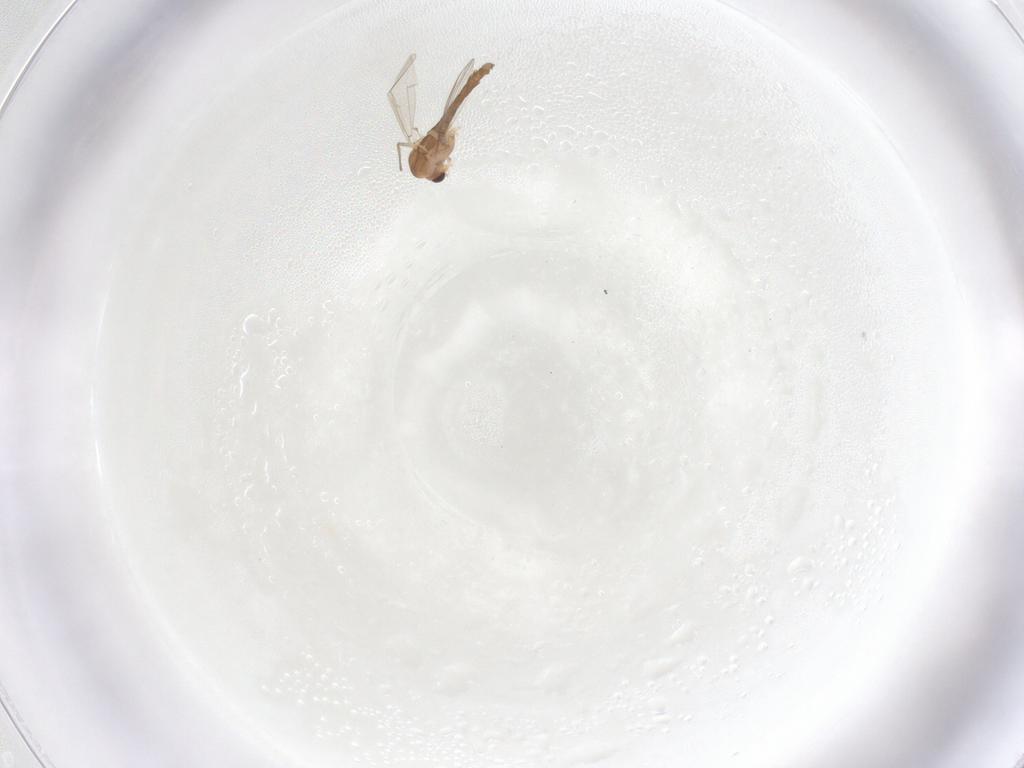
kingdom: Animalia
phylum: Arthropoda
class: Insecta
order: Diptera
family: Chironomidae
